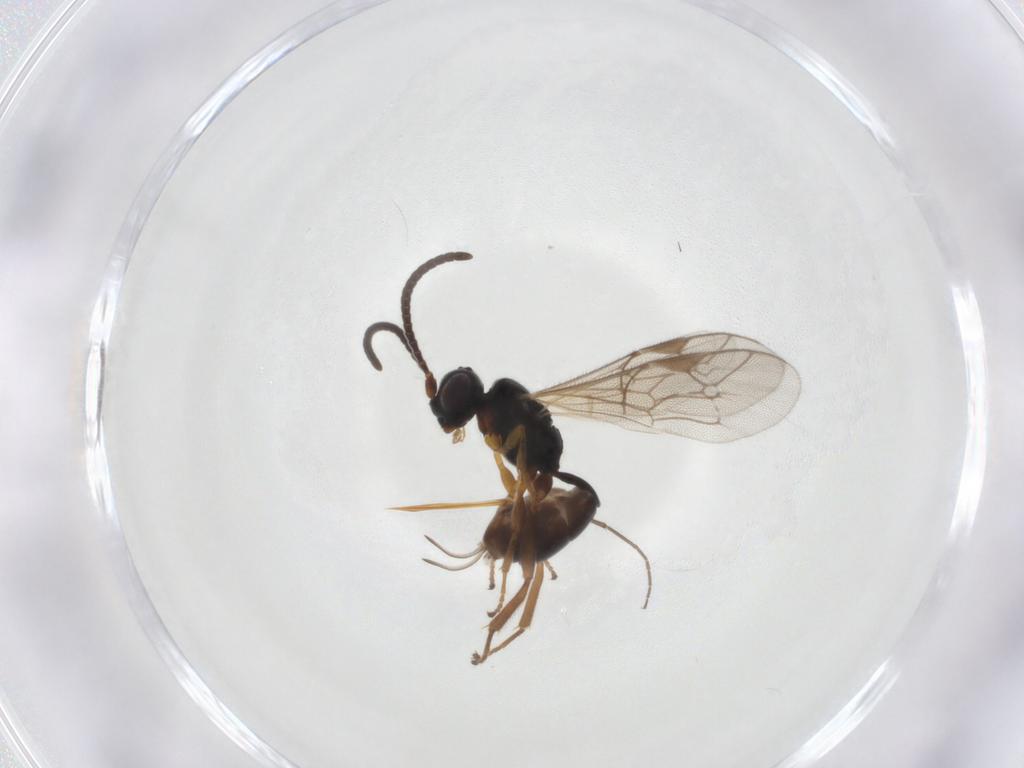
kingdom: Animalia
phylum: Arthropoda
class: Insecta
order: Hymenoptera
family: Ichneumonidae
